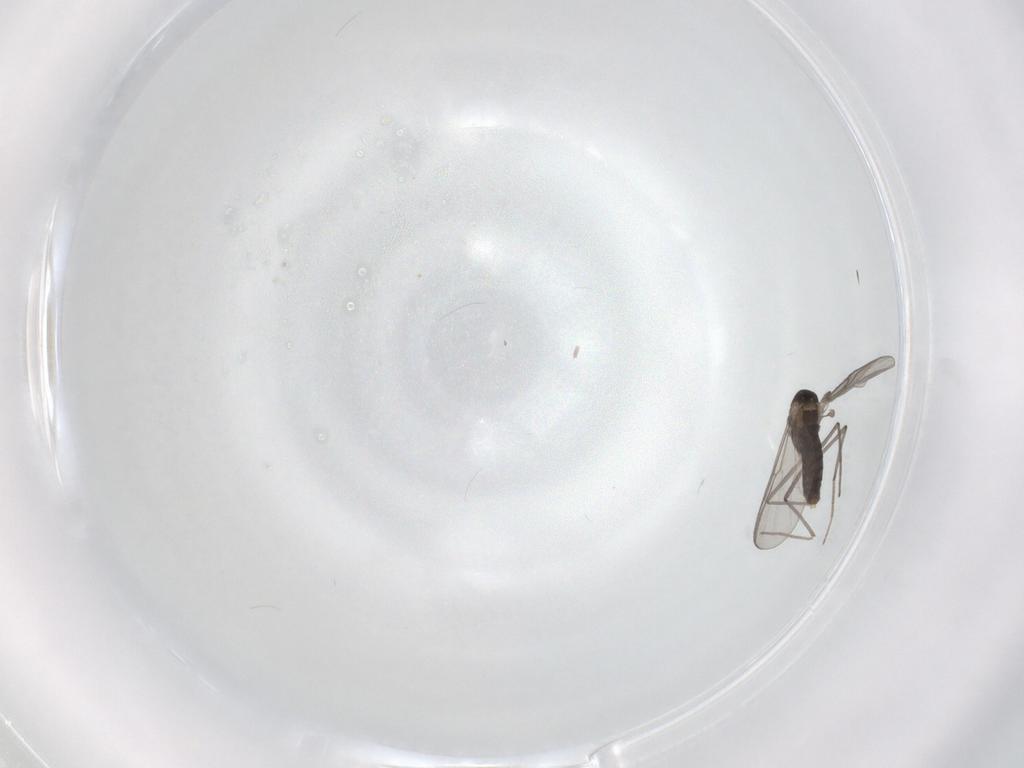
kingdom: Animalia
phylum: Arthropoda
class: Insecta
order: Diptera
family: Chironomidae
